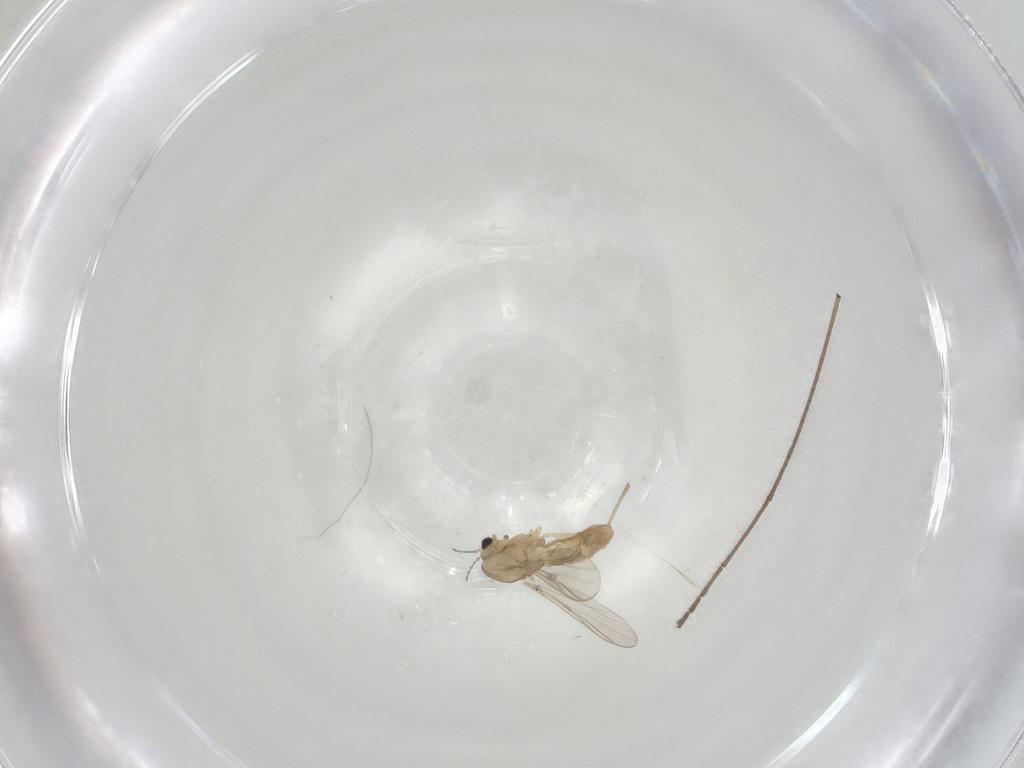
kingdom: Animalia
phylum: Arthropoda
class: Insecta
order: Diptera
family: Chironomidae
